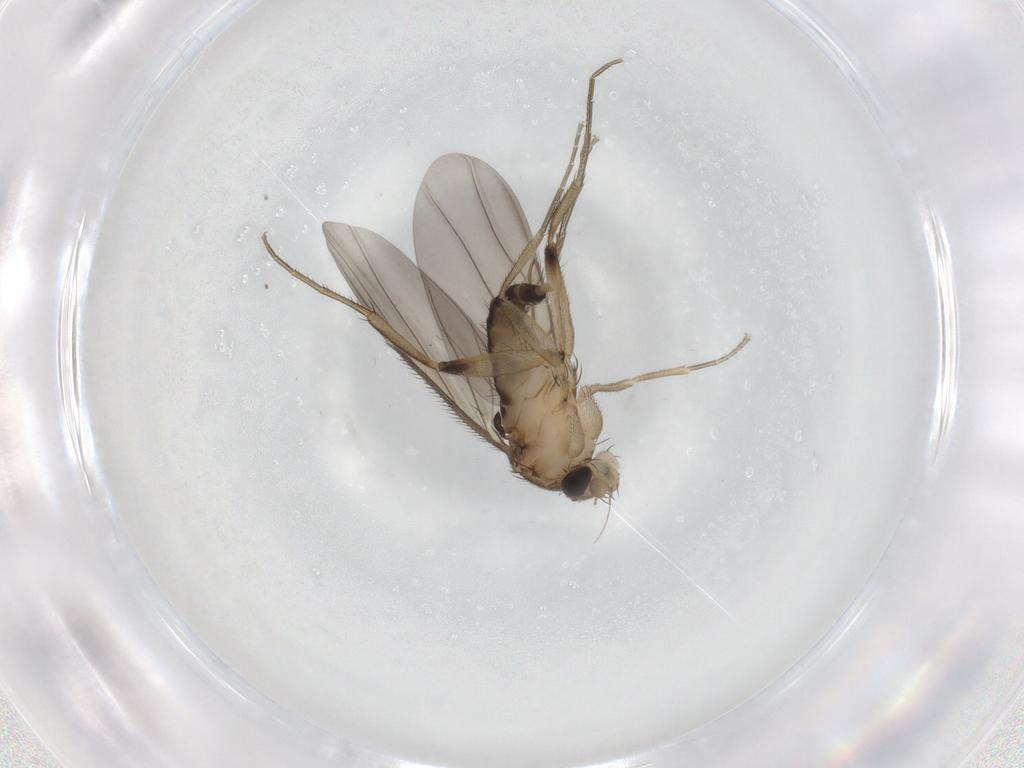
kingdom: Animalia
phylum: Arthropoda
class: Insecta
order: Diptera
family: Phoridae
